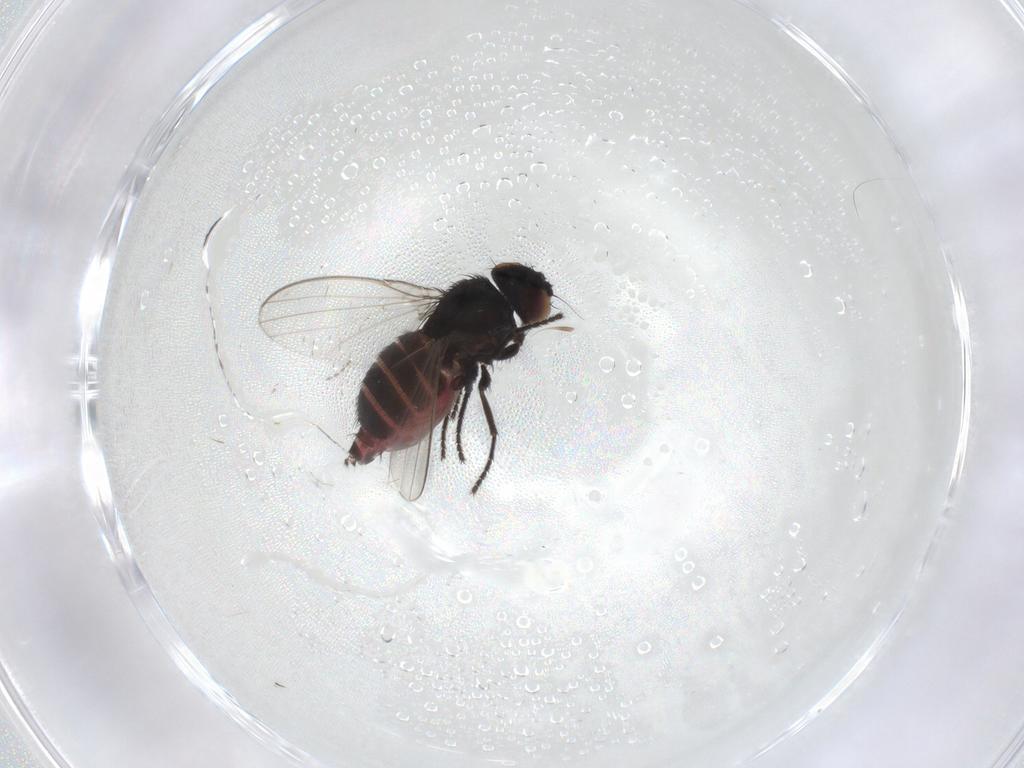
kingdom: Animalia
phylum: Arthropoda
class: Insecta
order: Diptera
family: Milichiidae
